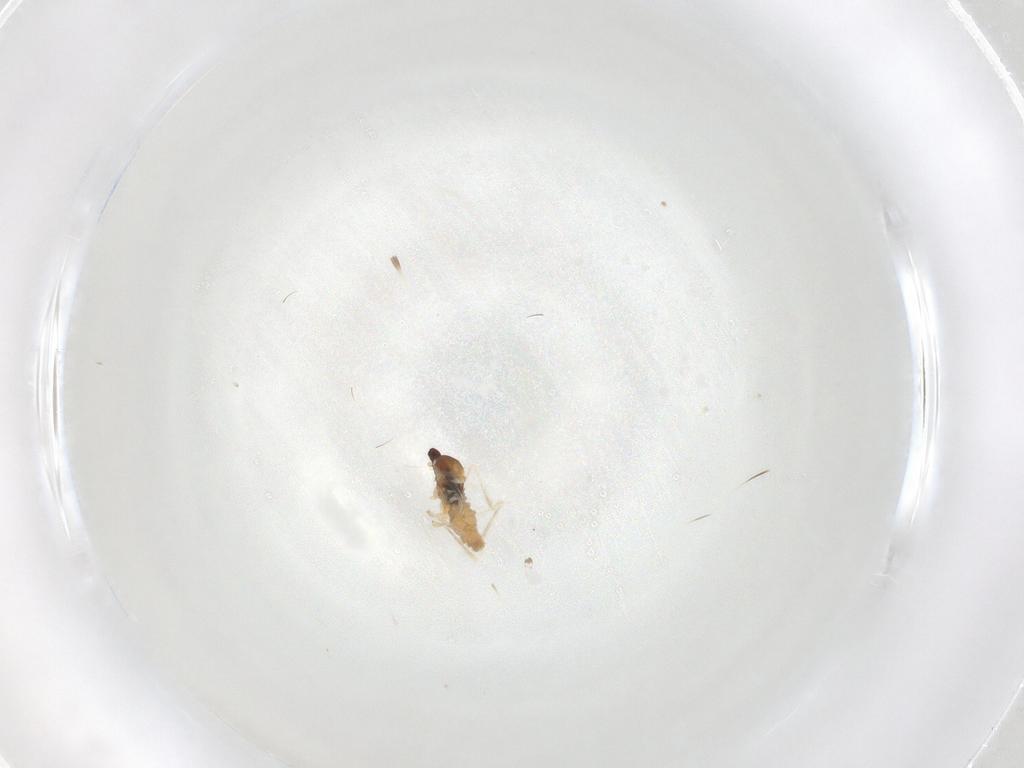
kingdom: Animalia
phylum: Arthropoda
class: Insecta
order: Diptera
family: Cecidomyiidae
